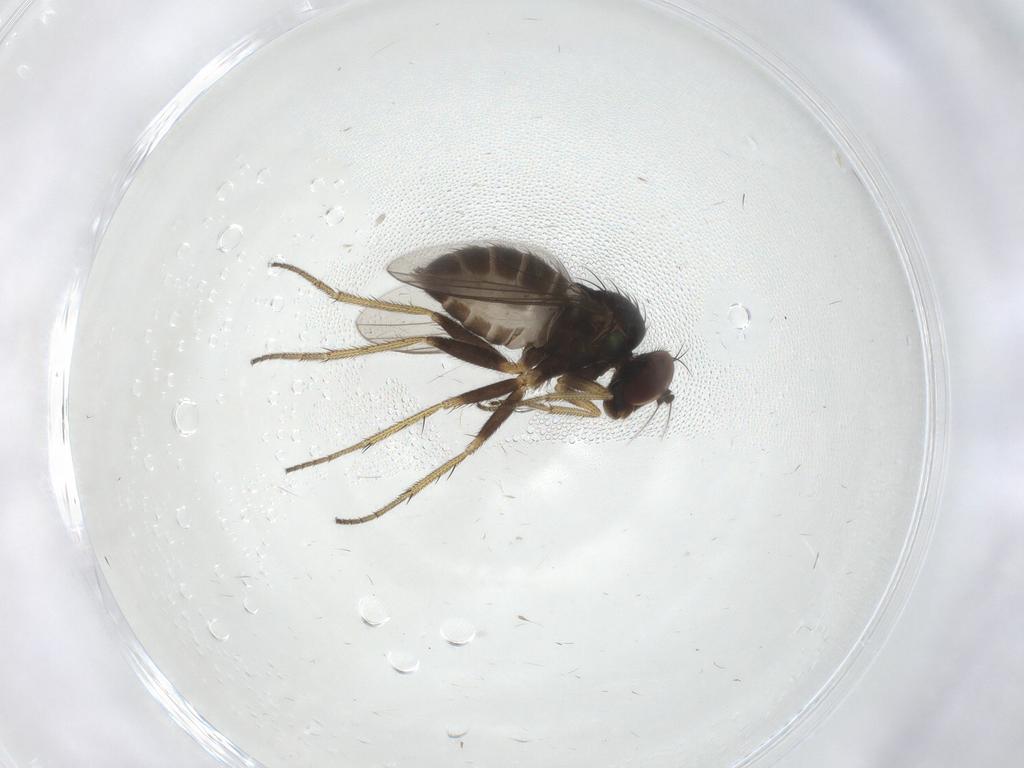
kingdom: Animalia
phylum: Arthropoda
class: Insecta
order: Diptera
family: Dolichopodidae
